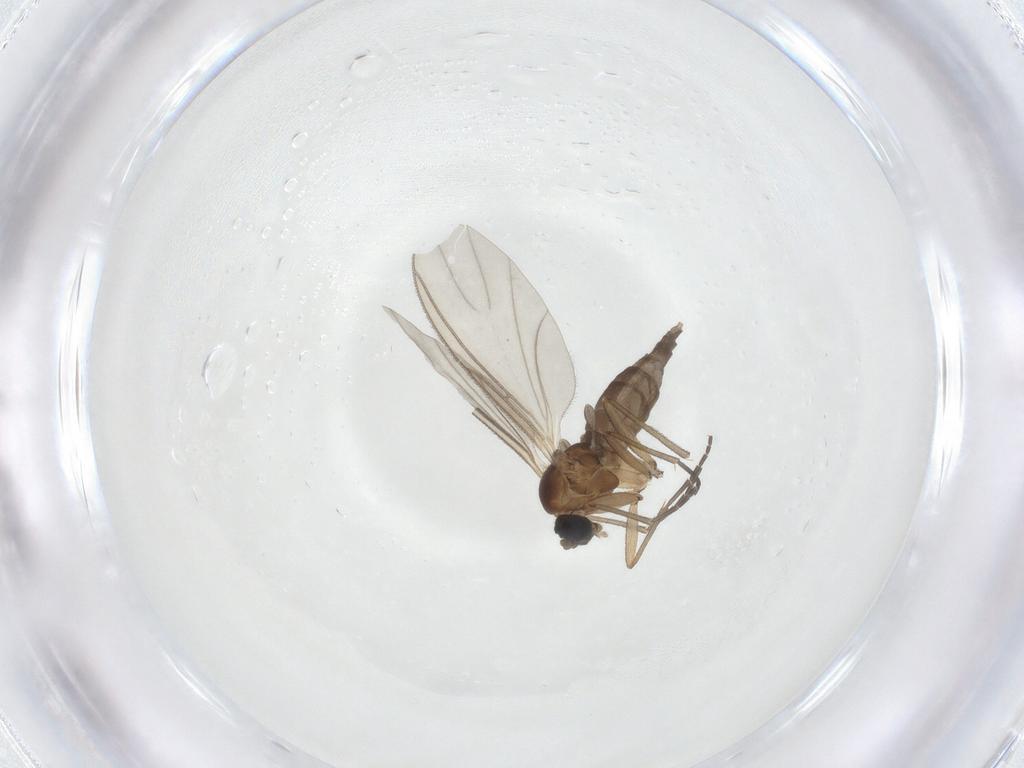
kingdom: Animalia
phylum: Arthropoda
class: Insecta
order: Diptera
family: Sciaridae
